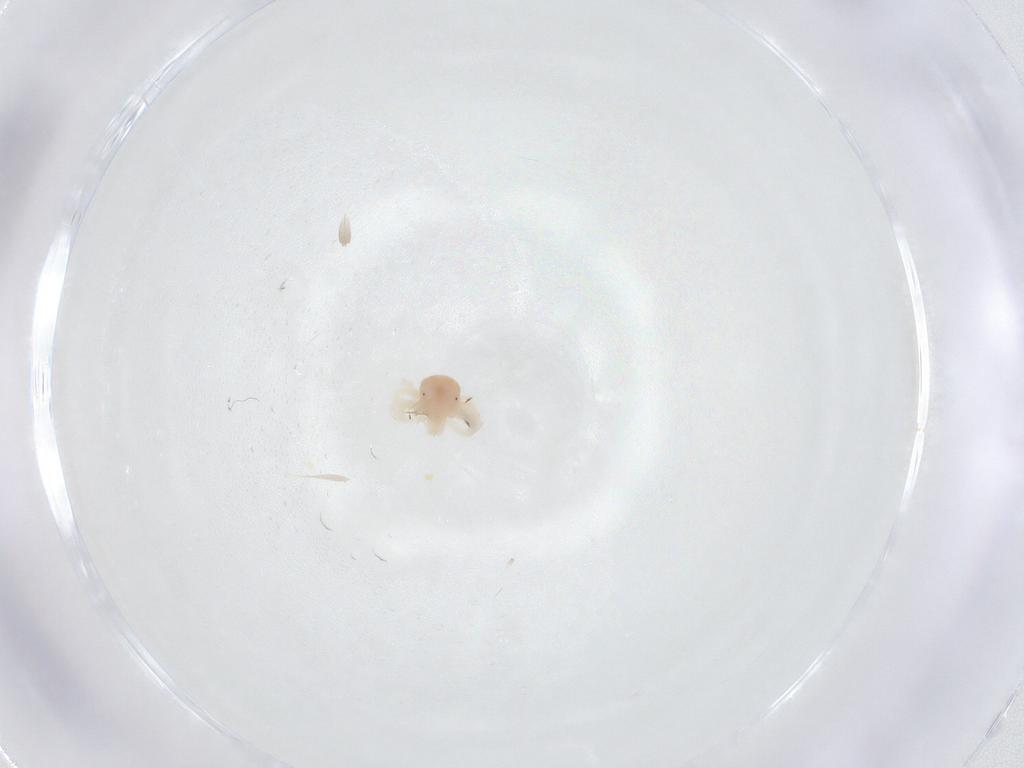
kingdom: Animalia
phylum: Arthropoda
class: Arachnida
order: Trombidiformes
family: Anystidae
